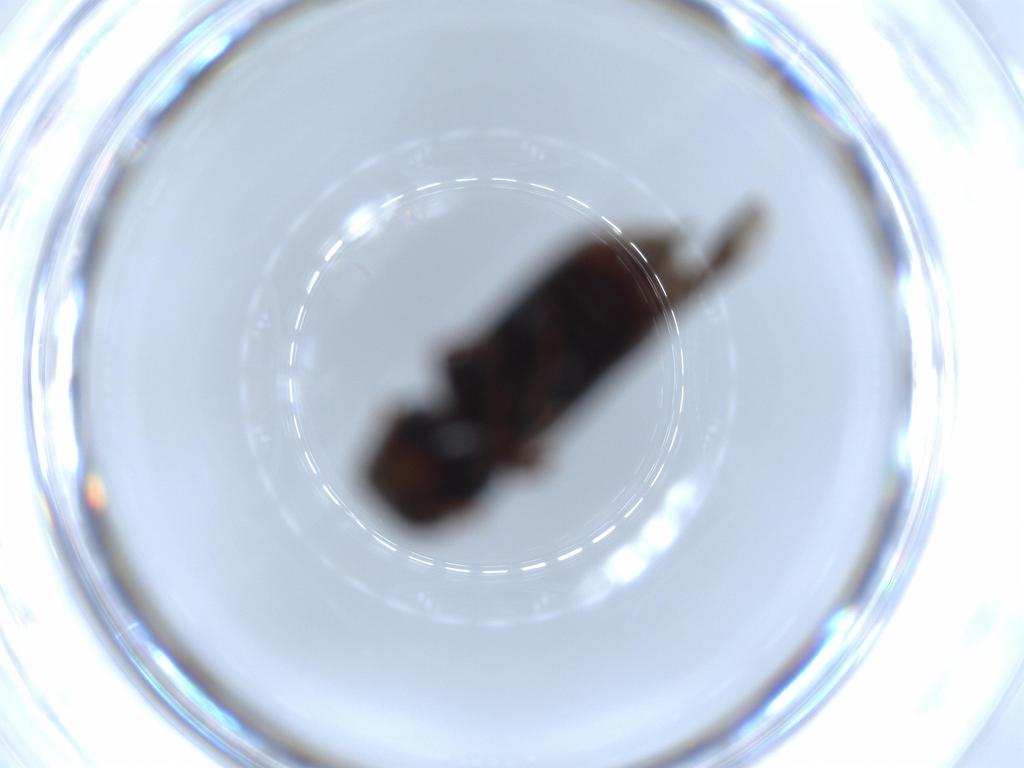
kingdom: Animalia
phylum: Arthropoda
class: Insecta
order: Coleoptera
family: Bostrichidae
